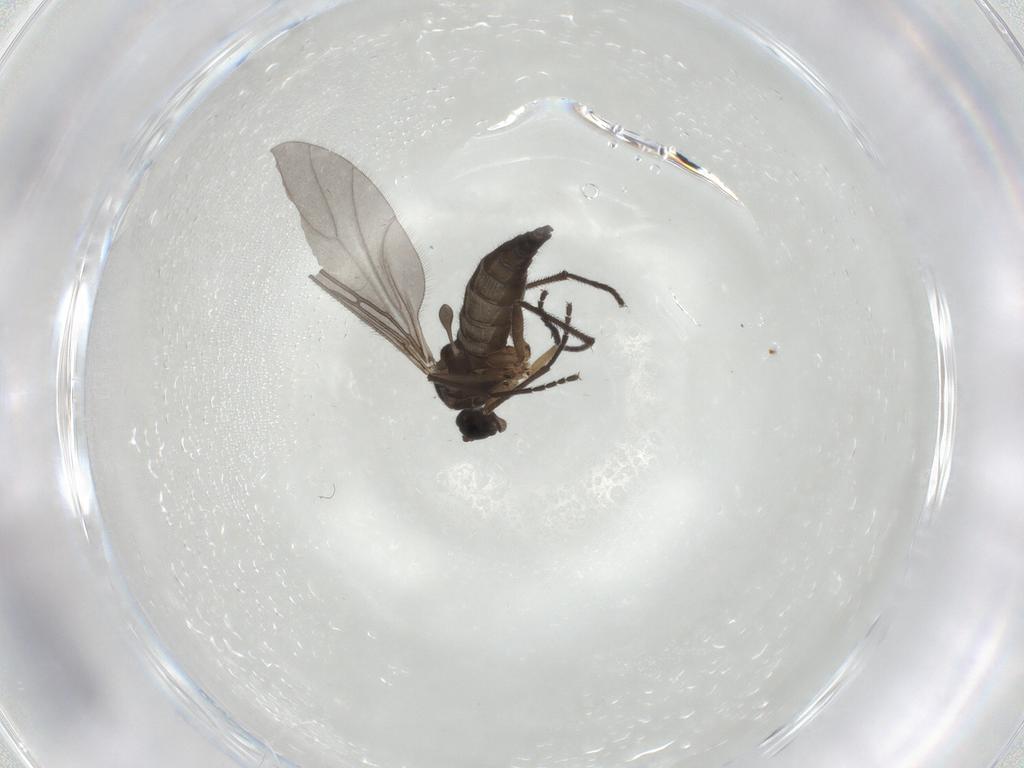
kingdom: Animalia
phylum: Arthropoda
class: Insecta
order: Diptera
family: Sciaridae
